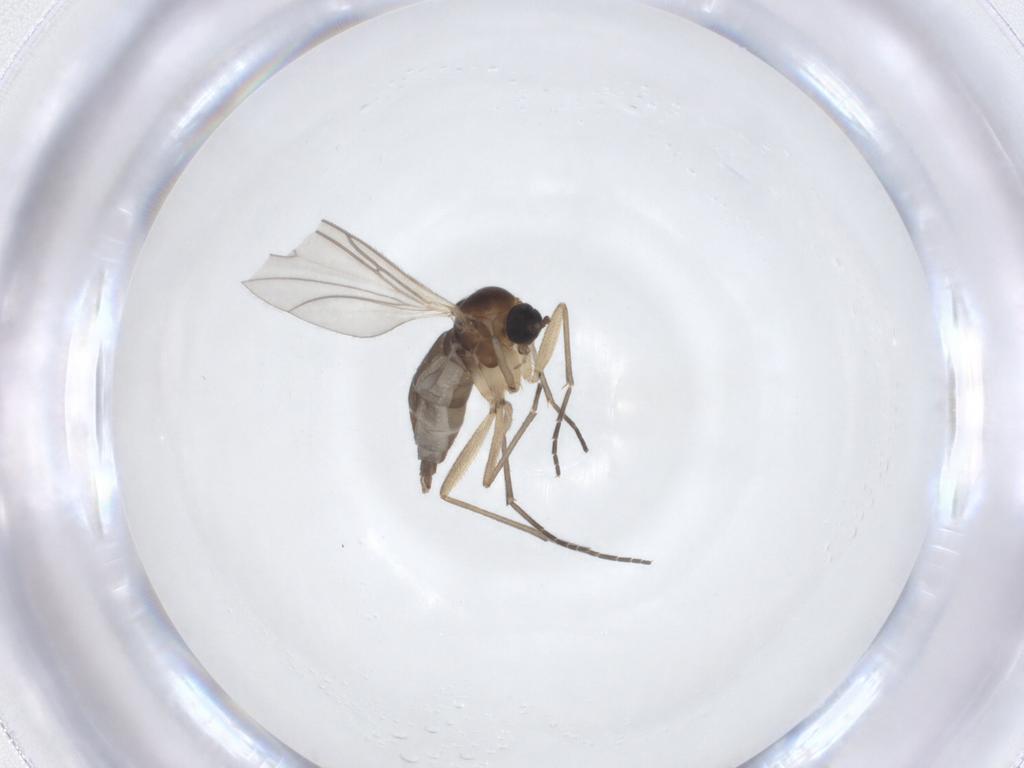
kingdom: Animalia
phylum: Arthropoda
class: Insecta
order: Diptera
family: Sciaridae
